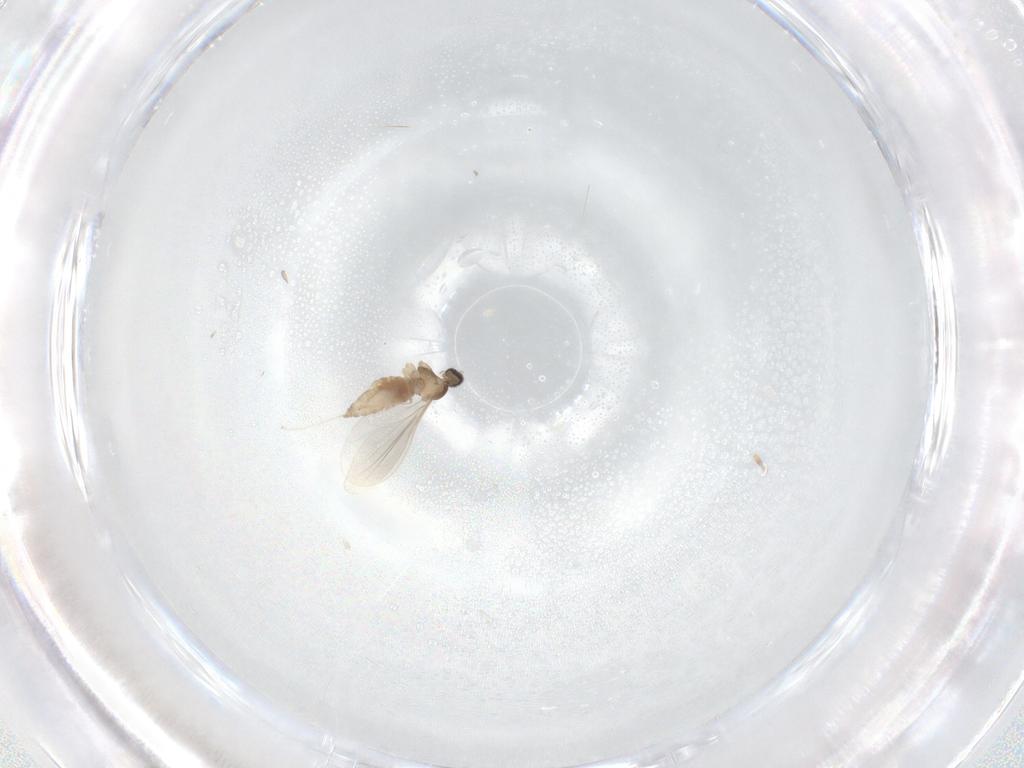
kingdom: Animalia
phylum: Arthropoda
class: Insecta
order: Diptera
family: Cecidomyiidae
